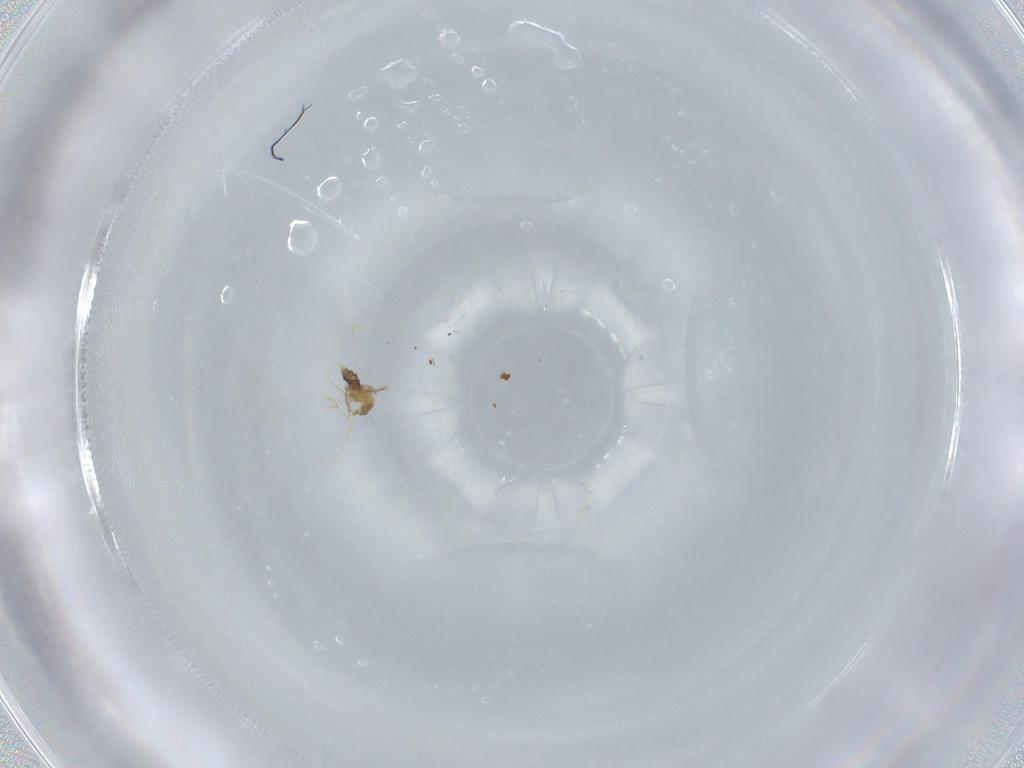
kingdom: Animalia
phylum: Arthropoda
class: Insecta
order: Diptera
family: Cecidomyiidae
